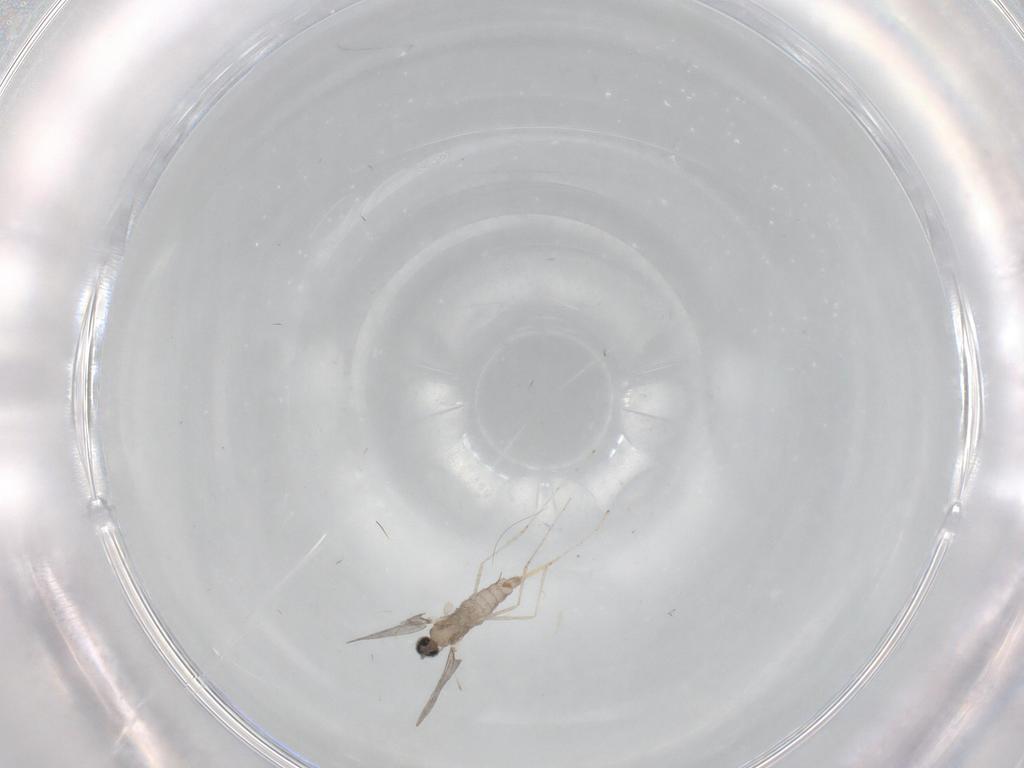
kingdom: Animalia
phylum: Arthropoda
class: Insecta
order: Diptera
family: Cecidomyiidae
